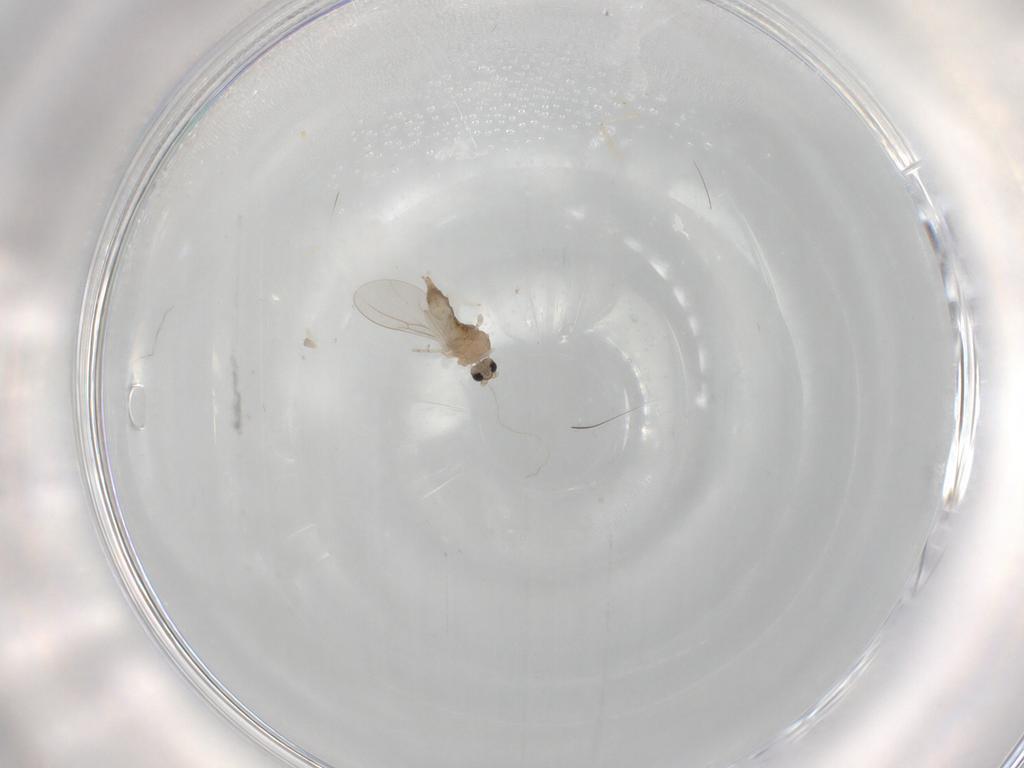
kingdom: Animalia
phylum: Arthropoda
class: Insecta
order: Diptera
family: Cecidomyiidae
